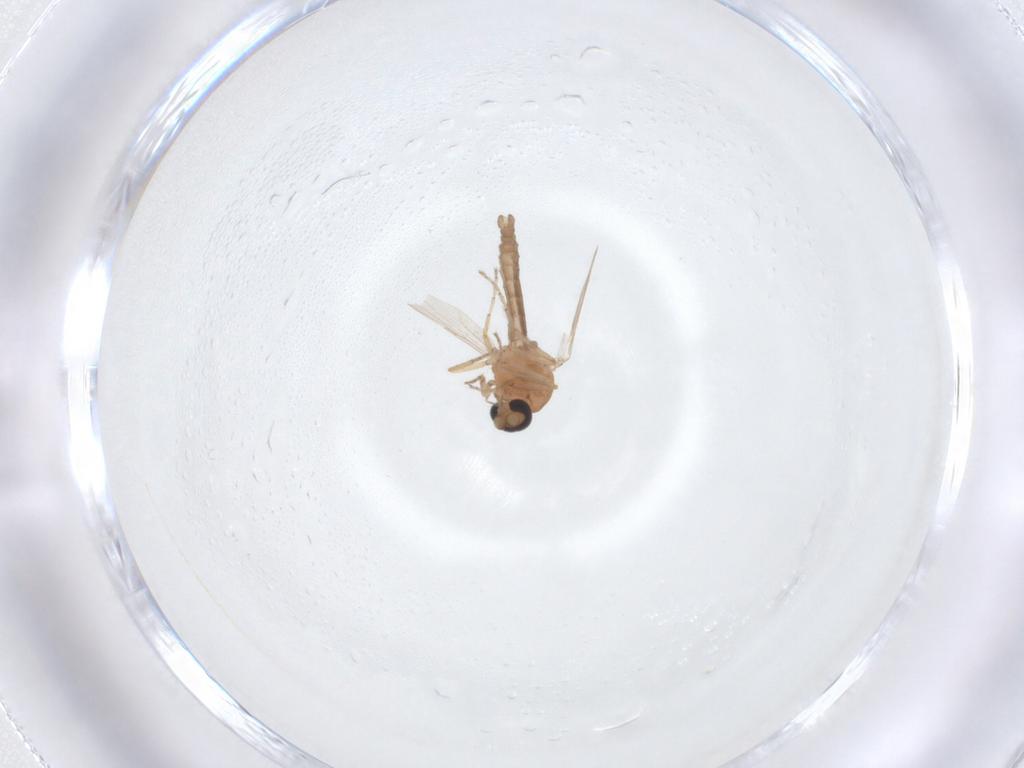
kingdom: Animalia
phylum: Arthropoda
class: Insecta
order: Diptera
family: Ceratopogonidae
